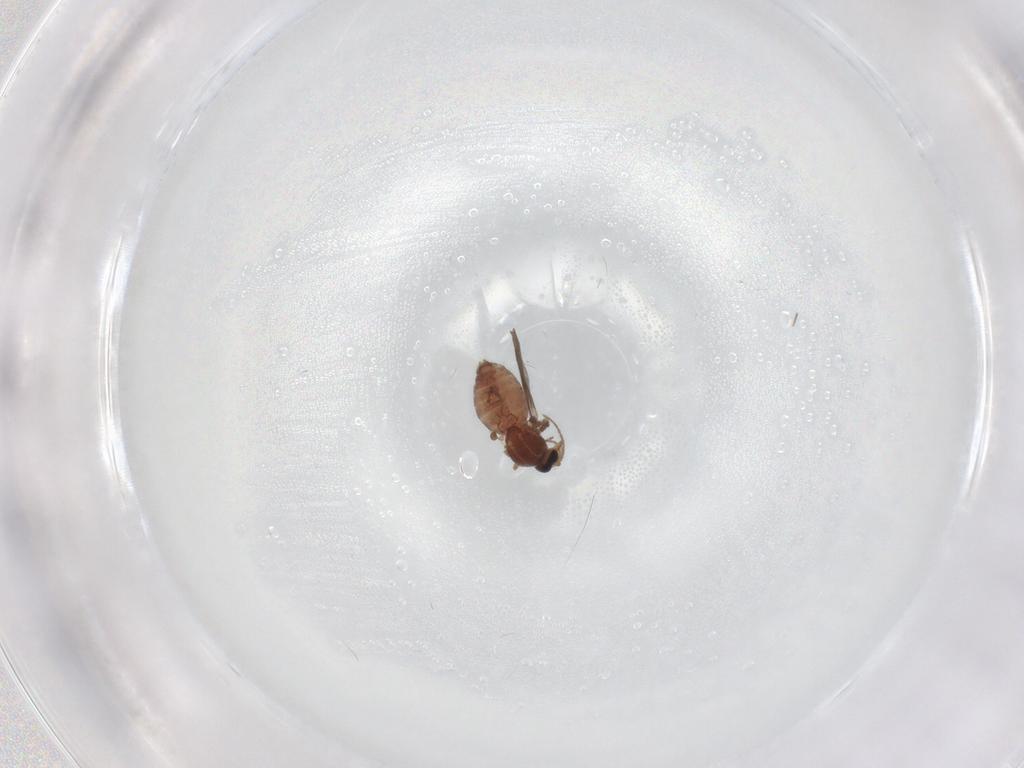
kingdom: Animalia
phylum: Arthropoda
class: Insecta
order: Diptera
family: Ceratopogonidae
